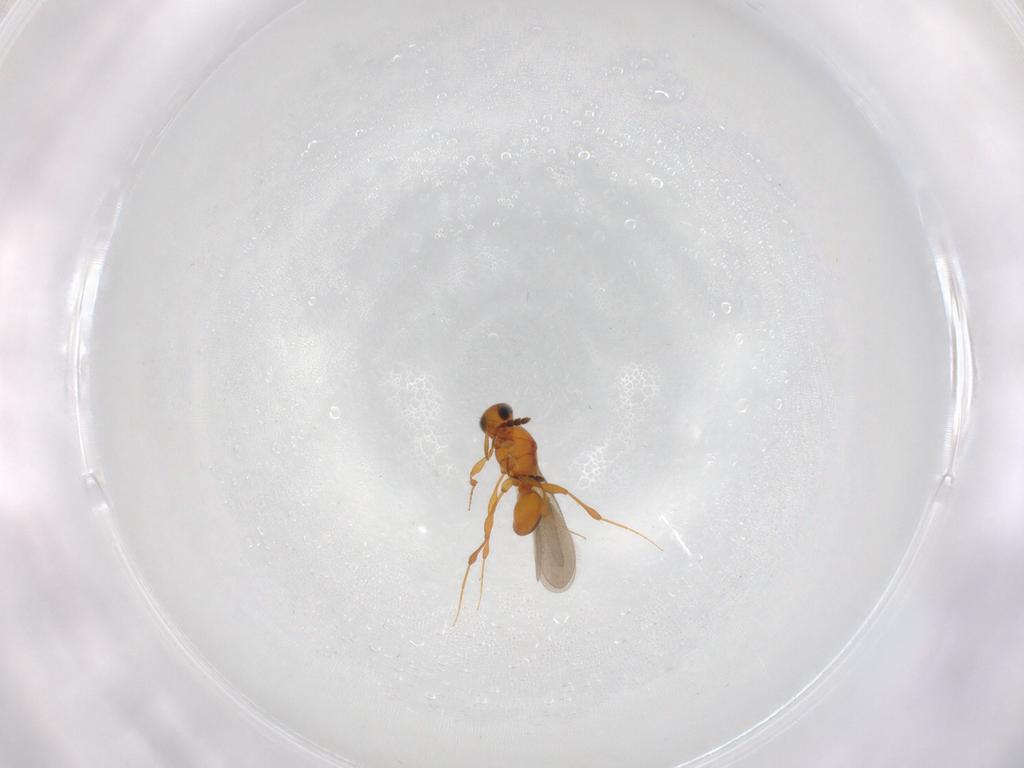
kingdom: Animalia
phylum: Arthropoda
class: Insecta
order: Hymenoptera
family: Platygastridae
